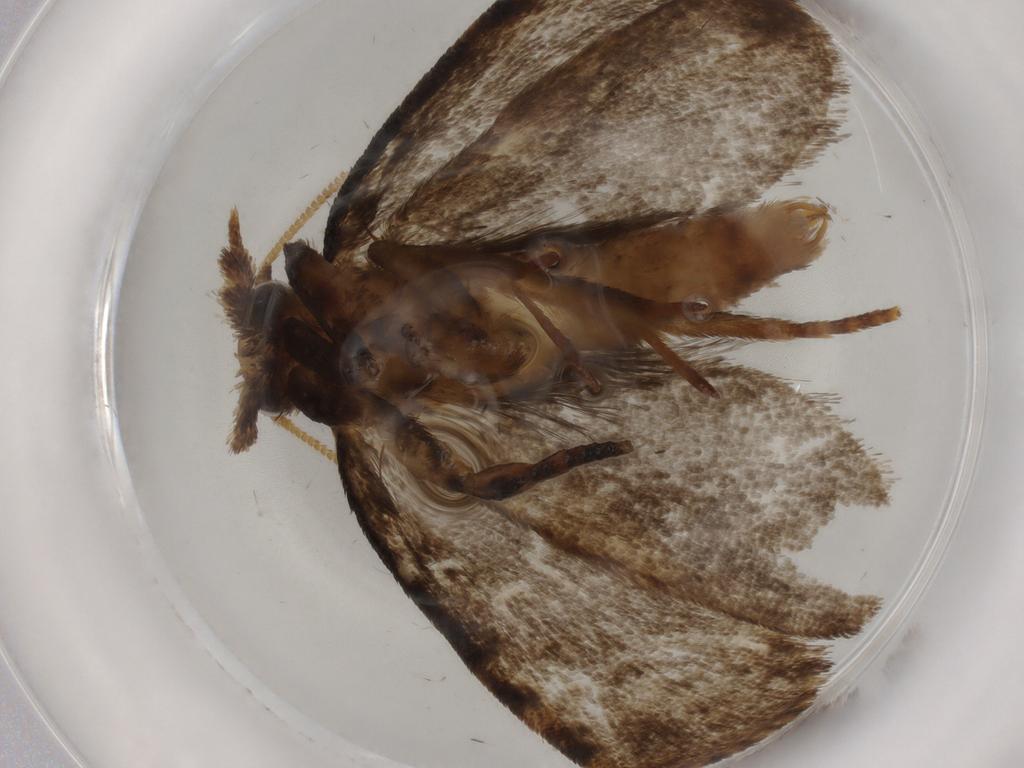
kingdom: Animalia
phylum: Arthropoda
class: Insecta
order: Lepidoptera
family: Tineidae
